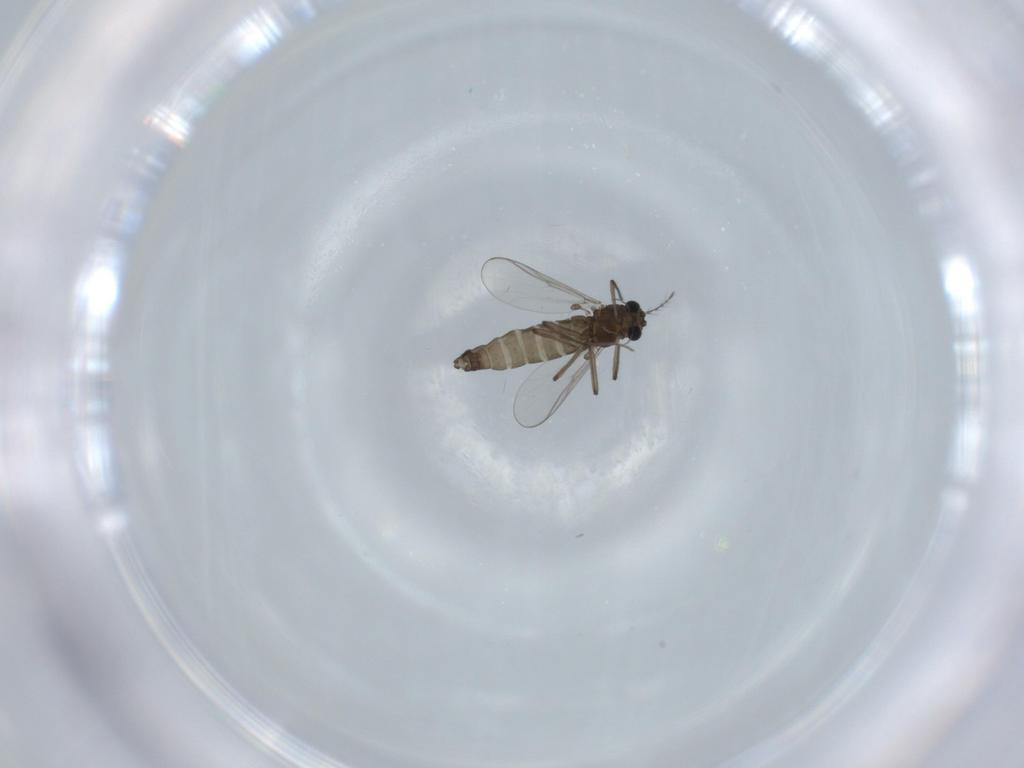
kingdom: Animalia
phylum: Arthropoda
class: Insecta
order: Diptera
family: Chironomidae
